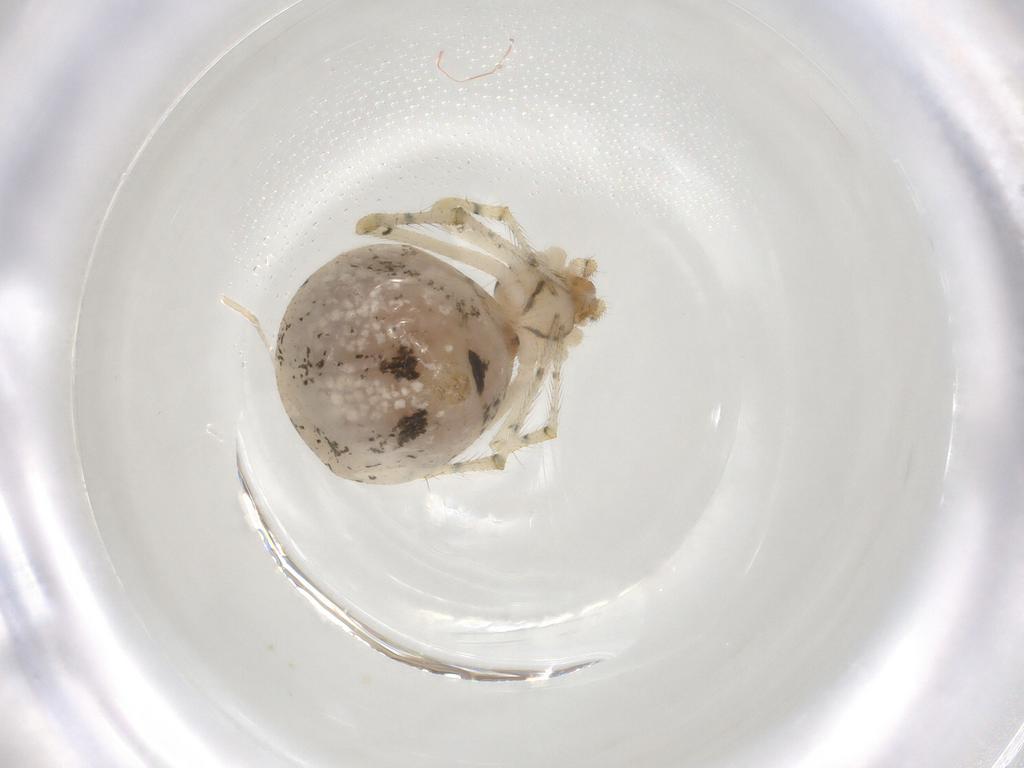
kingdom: Animalia
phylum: Arthropoda
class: Arachnida
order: Araneae
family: Theridiidae
